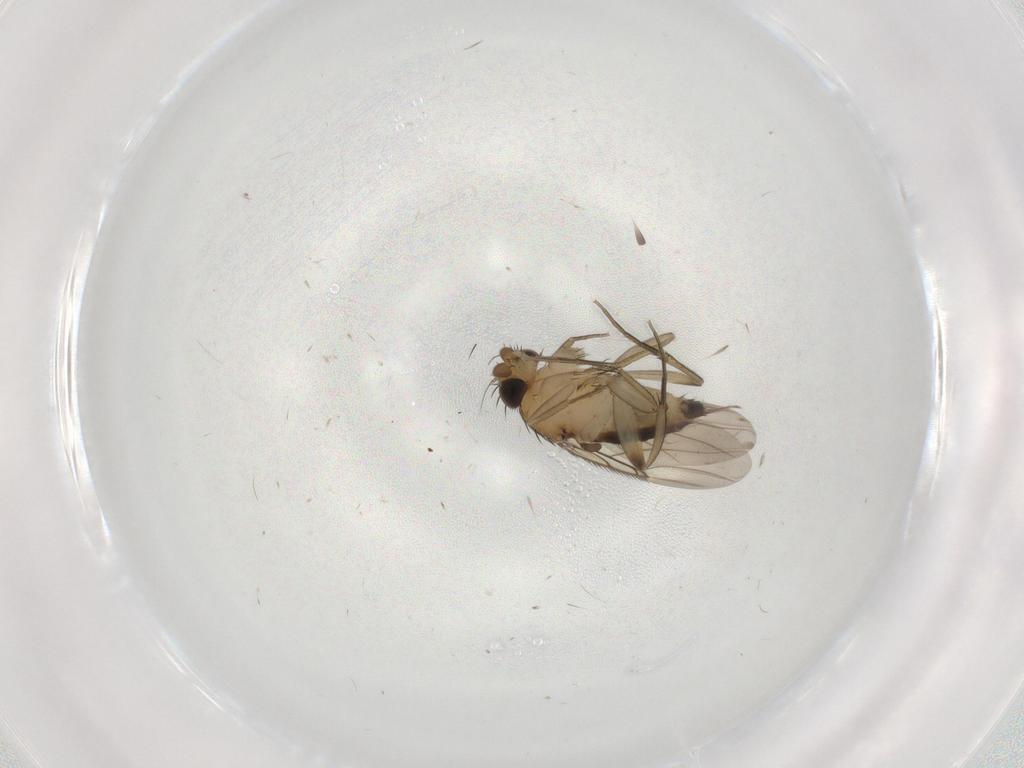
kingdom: Animalia
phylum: Arthropoda
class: Insecta
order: Diptera
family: Phoridae
